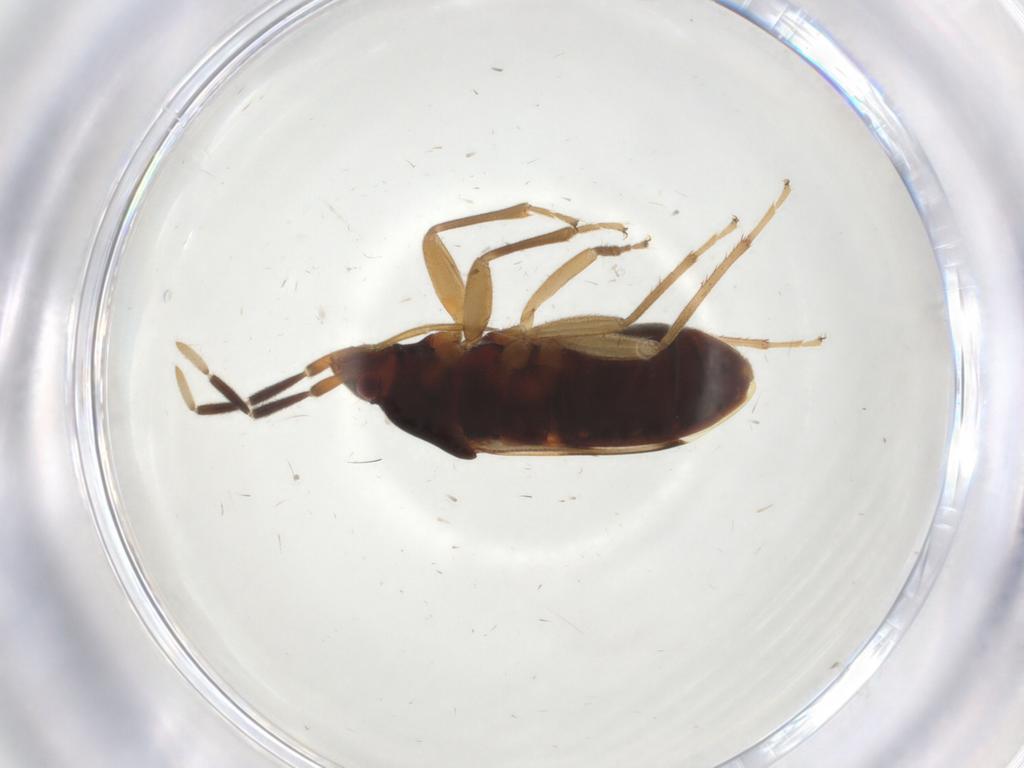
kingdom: Animalia
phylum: Arthropoda
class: Insecta
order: Hemiptera
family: Rhyparochromidae
